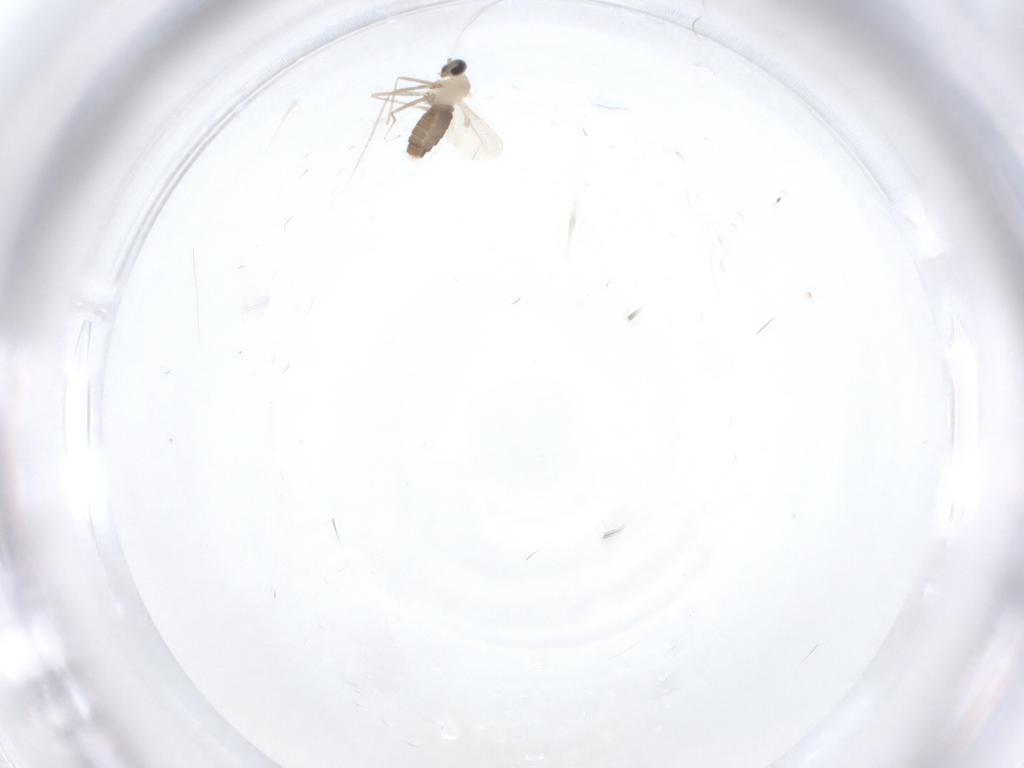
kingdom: Animalia
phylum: Arthropoda
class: Insecta
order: Diptera
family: Cecidomyiidae
